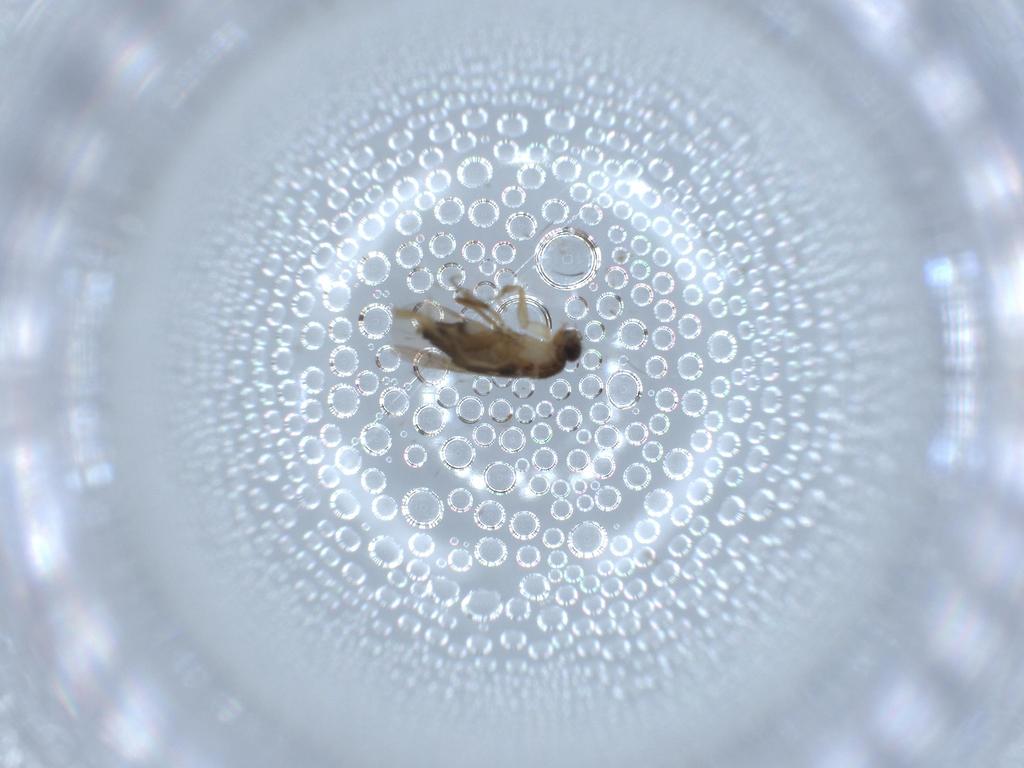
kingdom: Animalia
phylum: Arthropoda
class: Insecta
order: Diptera
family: Phoridae
